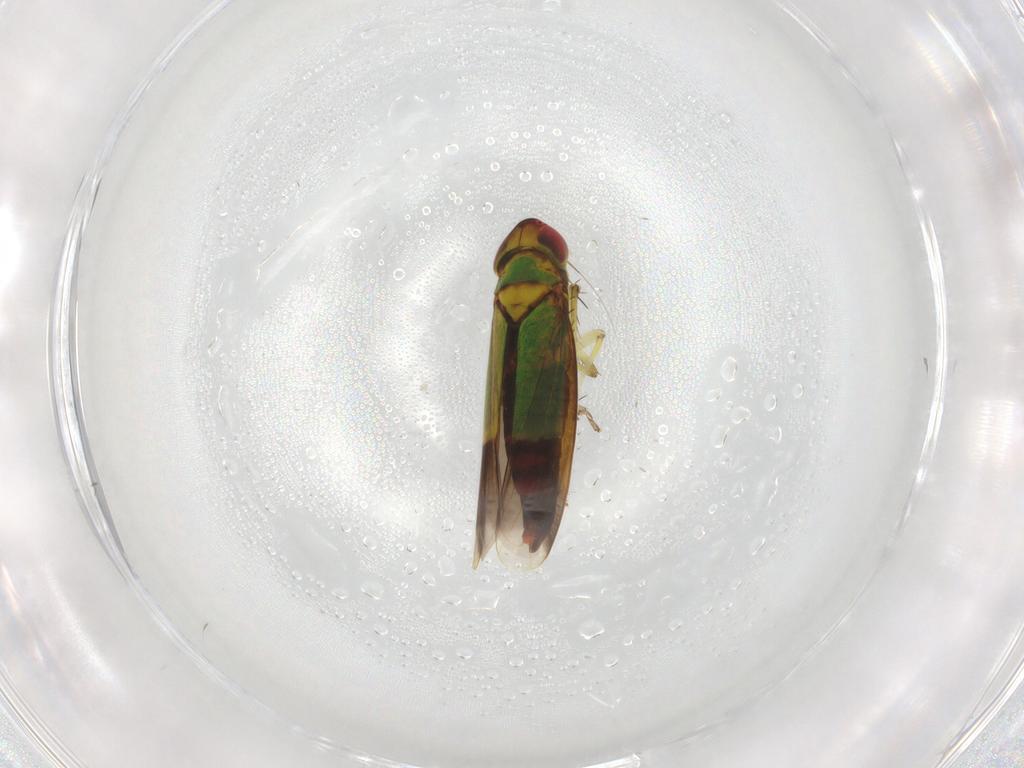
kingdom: Animalia
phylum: Arthropoda
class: Insecta
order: Hemiptera
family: Cicadellidae
